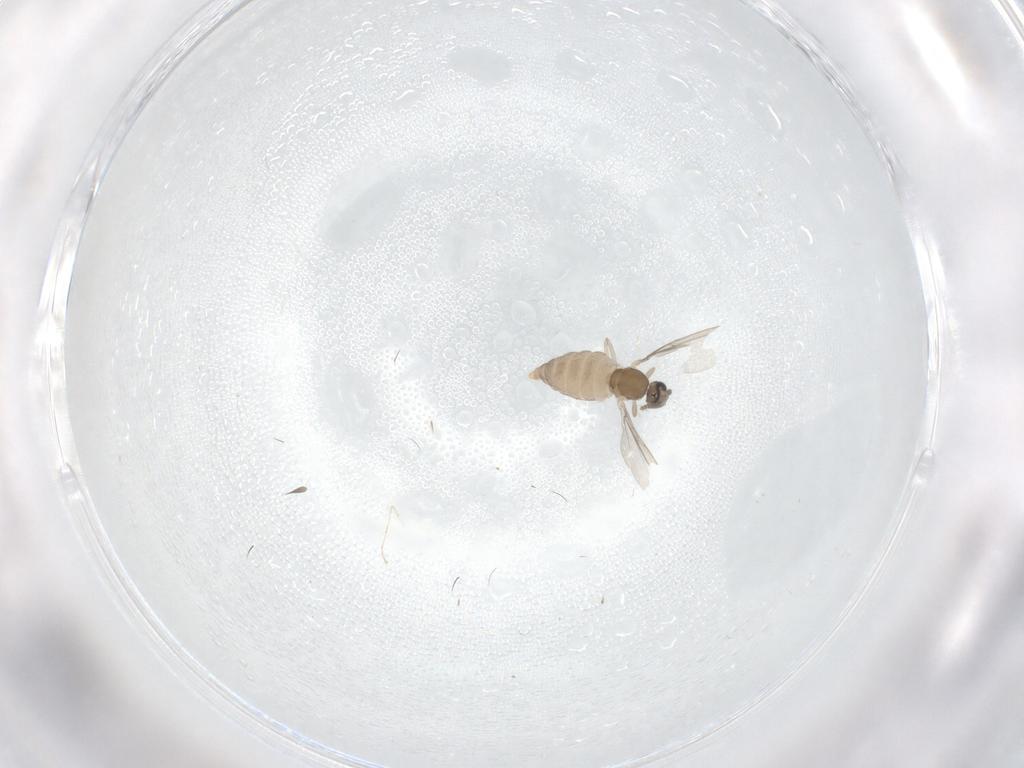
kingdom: Animalia
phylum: Arthropoda
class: Insecta
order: Diptera
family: Cecidomyiidae
